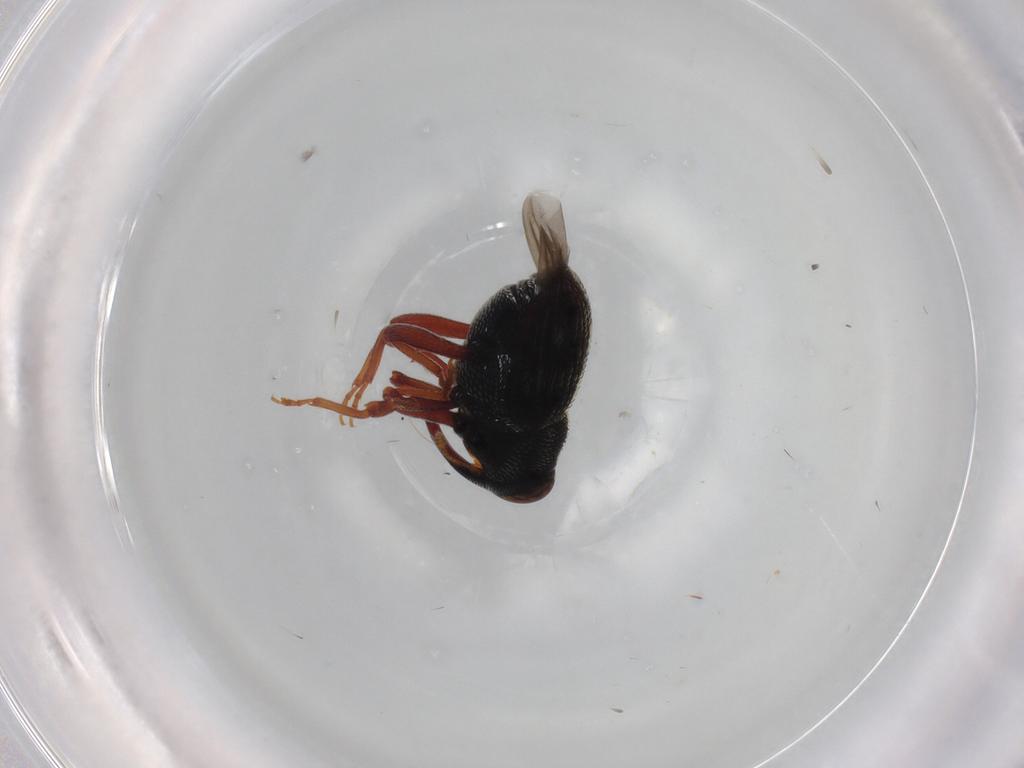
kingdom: Animalia
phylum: Arthropoda
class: Insecta
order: Coleoptera
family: Curculionidae
